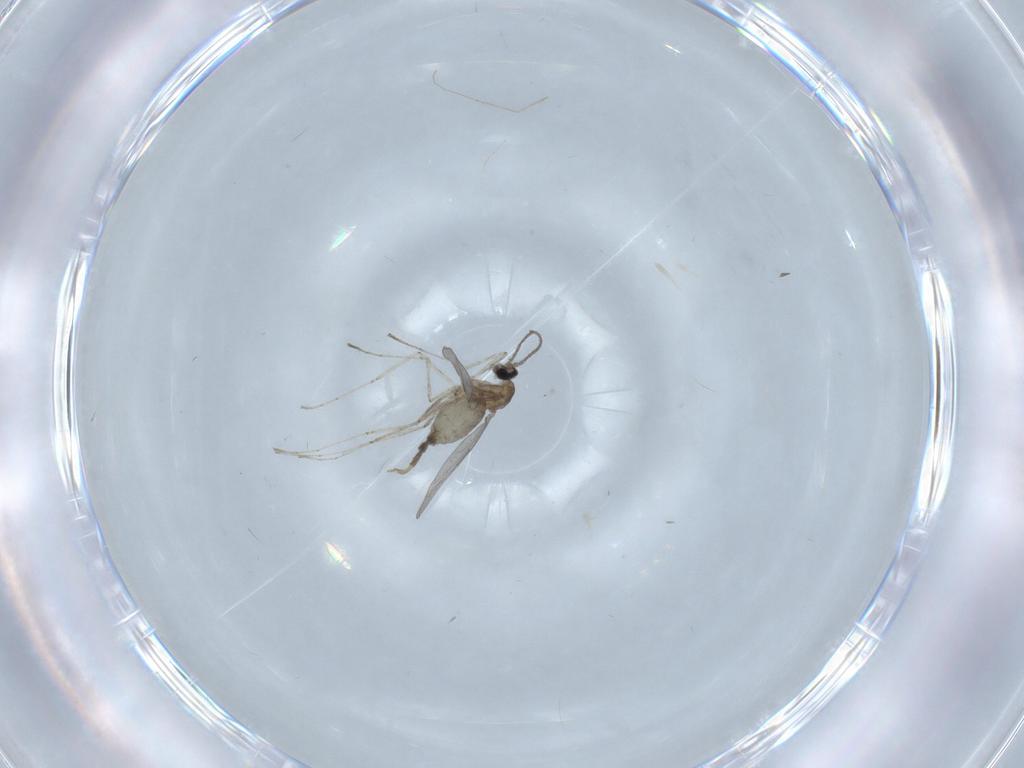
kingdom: Animalia
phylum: Arthropoda
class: Insecta
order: Diptera
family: Cecidomyiidae
